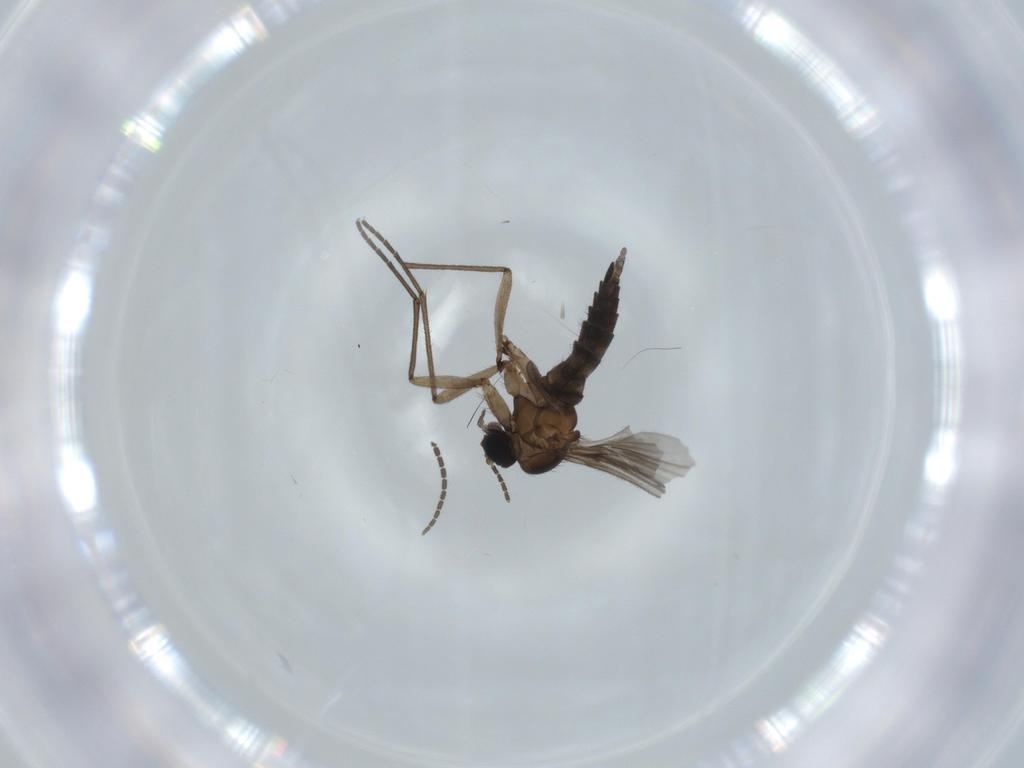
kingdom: Animalia
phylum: Arthropoda
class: Insecta
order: Diptera
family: Sciaridae
